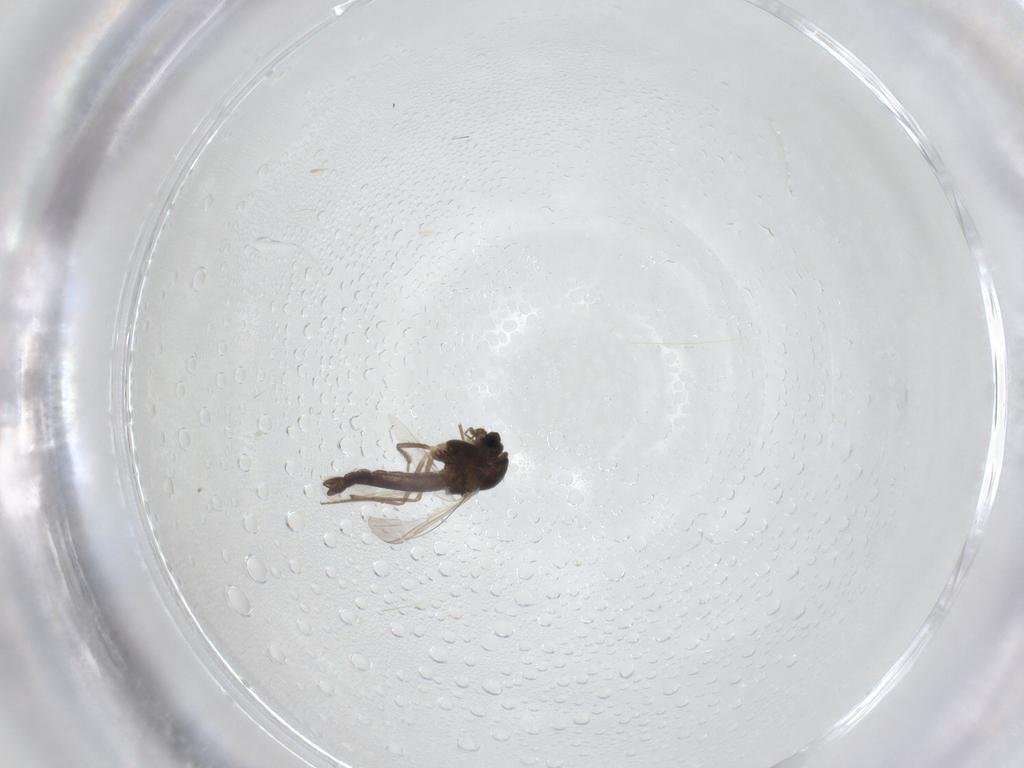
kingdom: Animalia
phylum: Arthropoda
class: Insecta
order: Diptera
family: Chironomidae
